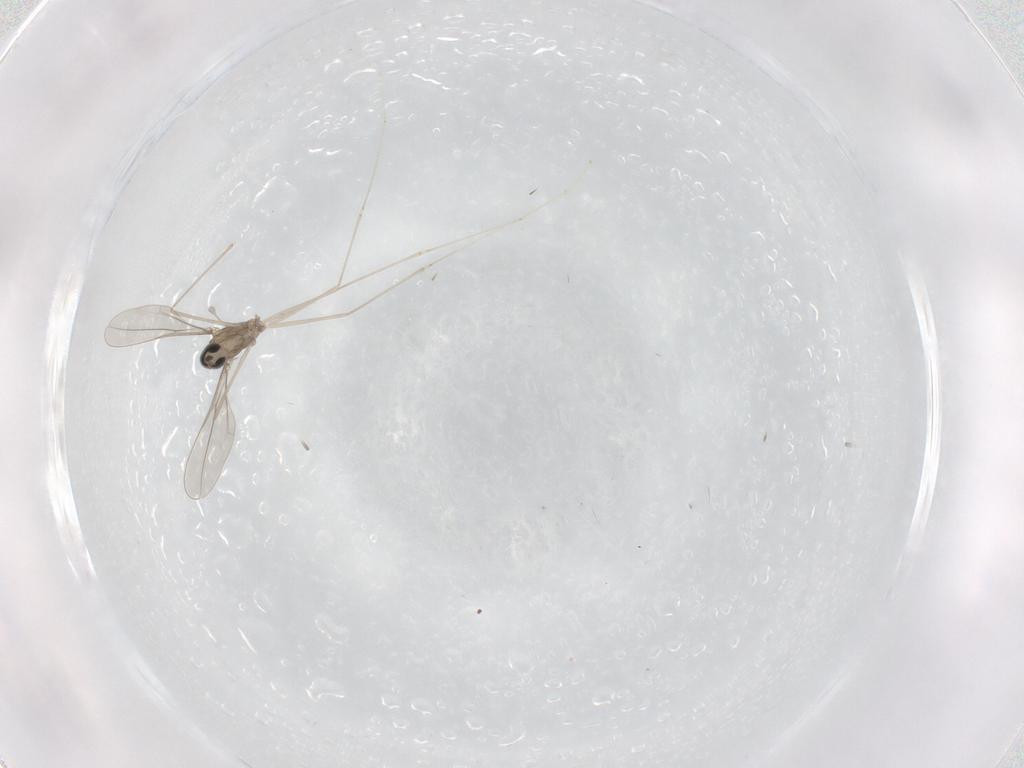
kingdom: Animalia
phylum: Arthropoda
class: Insecta
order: Diptera
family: Cecidomyiidae
